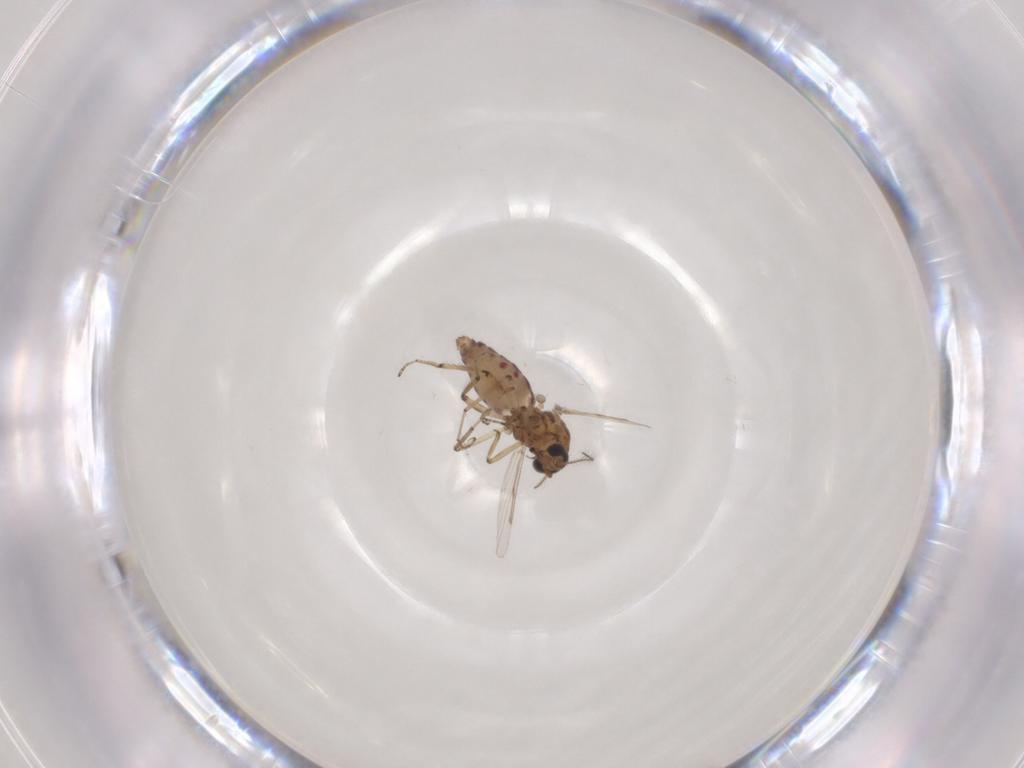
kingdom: Animalia
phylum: Arthropoda
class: Insecta
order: Diptera
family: Ceratopogonidae
